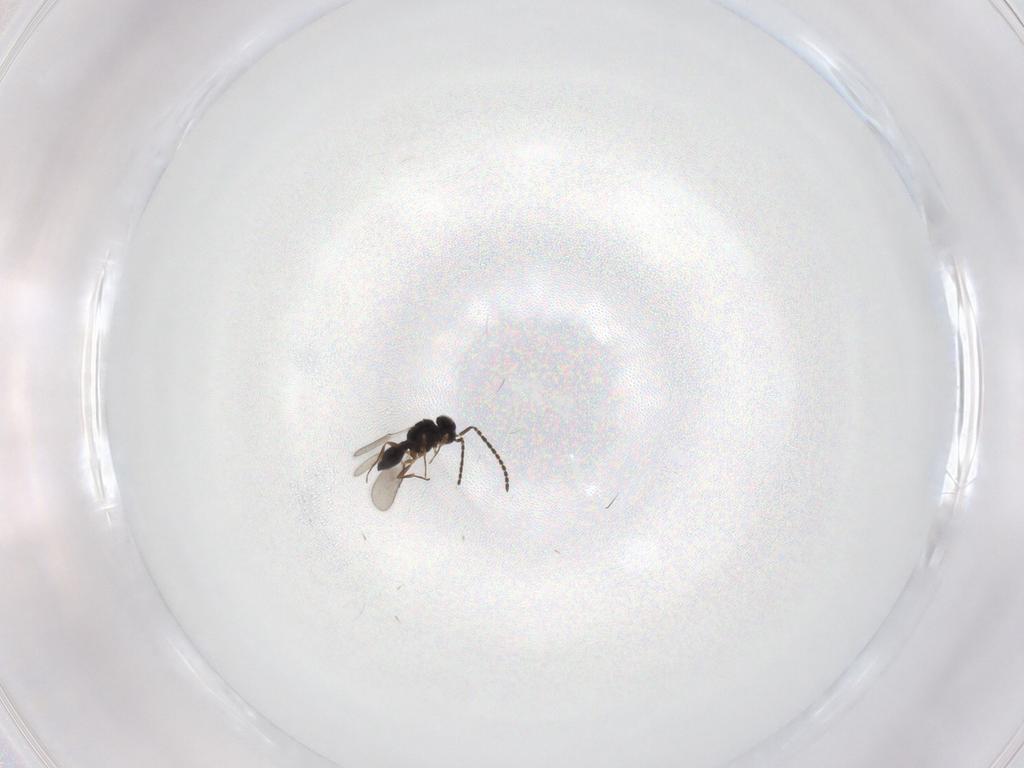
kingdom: Animalia
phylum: Arthropoda
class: Insecta
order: Hymenoptera
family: Scelionidae
